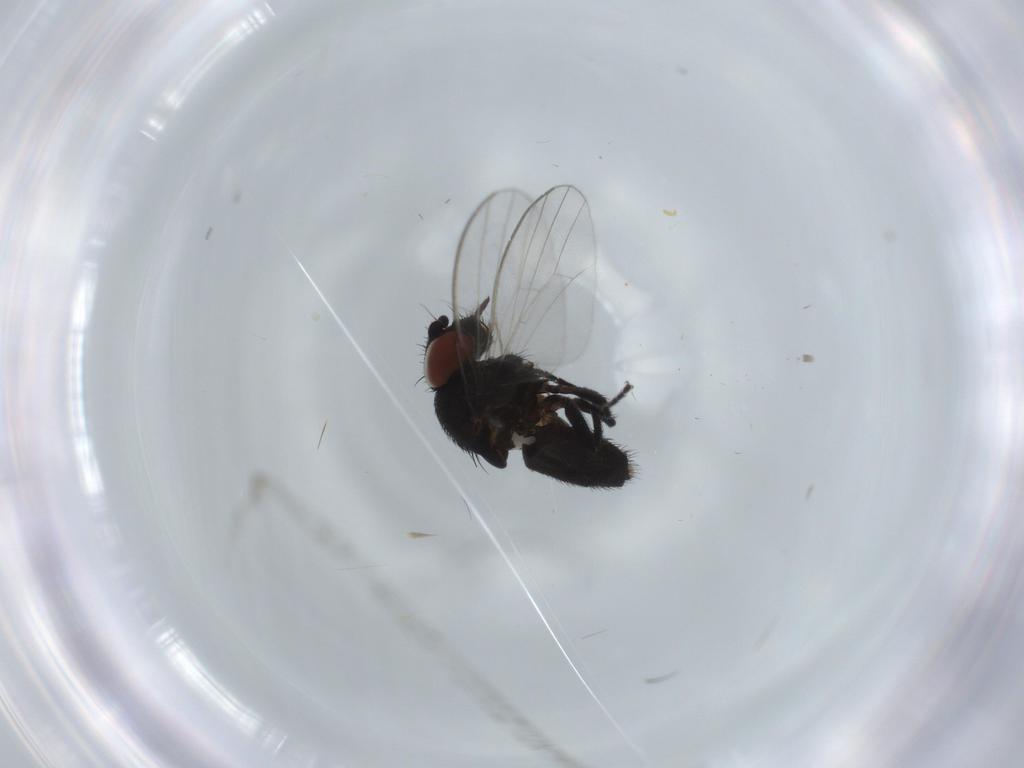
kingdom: Animalia
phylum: Arthropoda
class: Insecta
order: Diptera
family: Milichiidae
